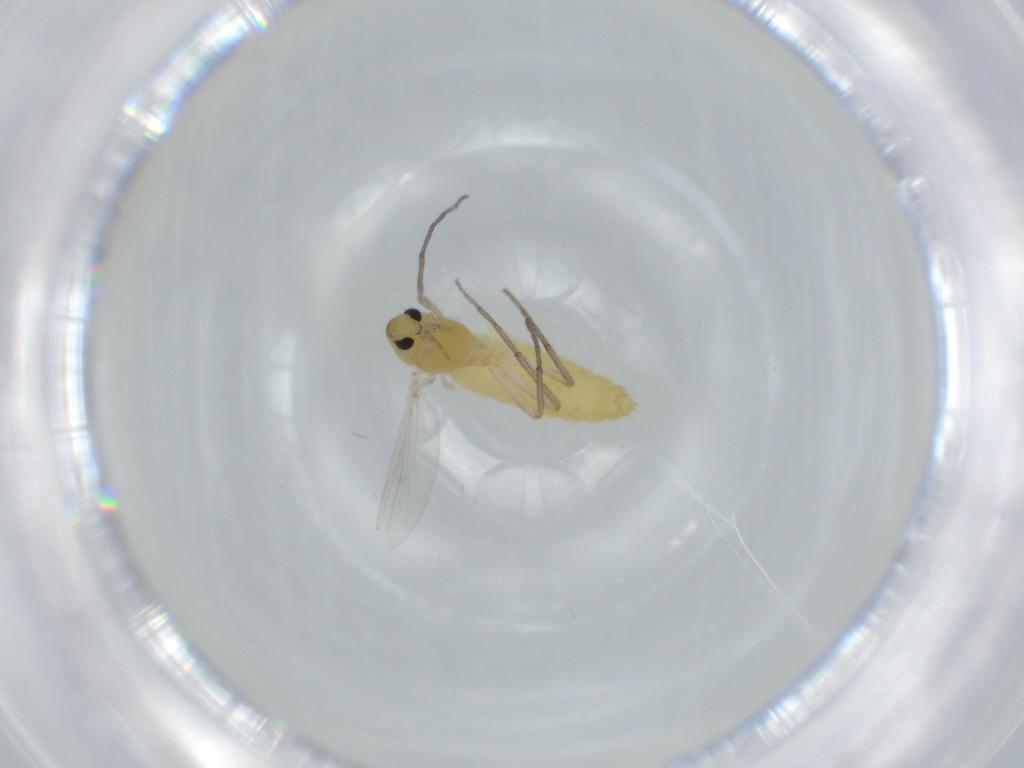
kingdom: Animalia
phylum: Arthropoda
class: Insecta
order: Diptera
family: Chironomidae
